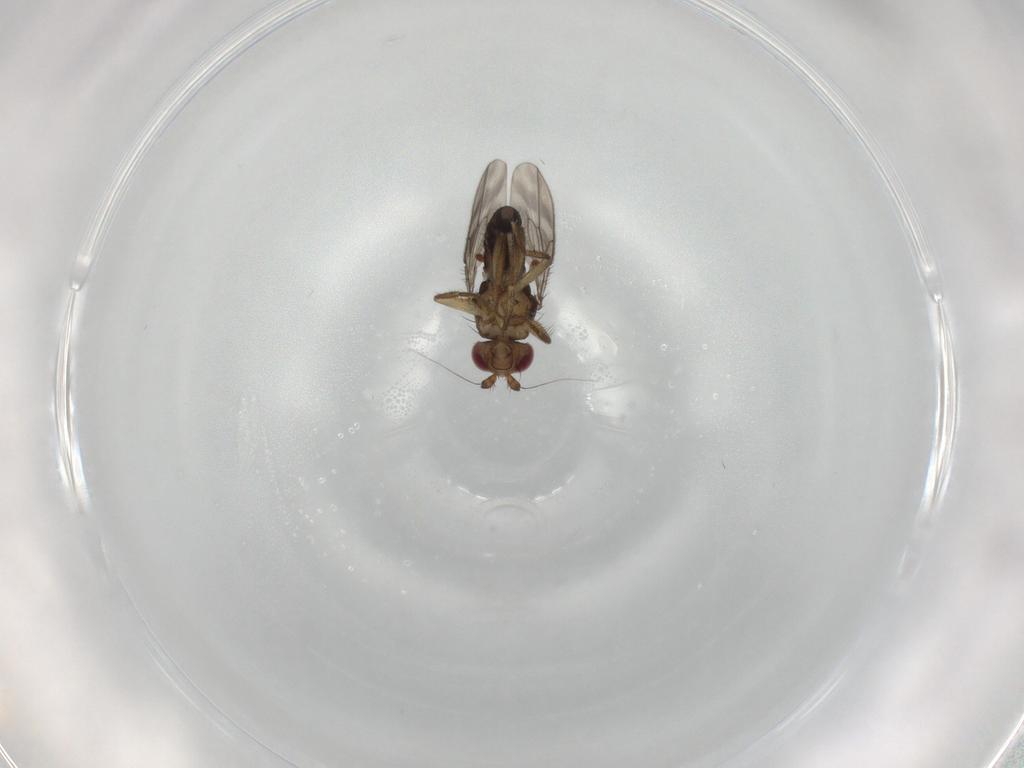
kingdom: Animalia
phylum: Arthropoda
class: Insecta
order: Diptera
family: Sphaeroceridae
